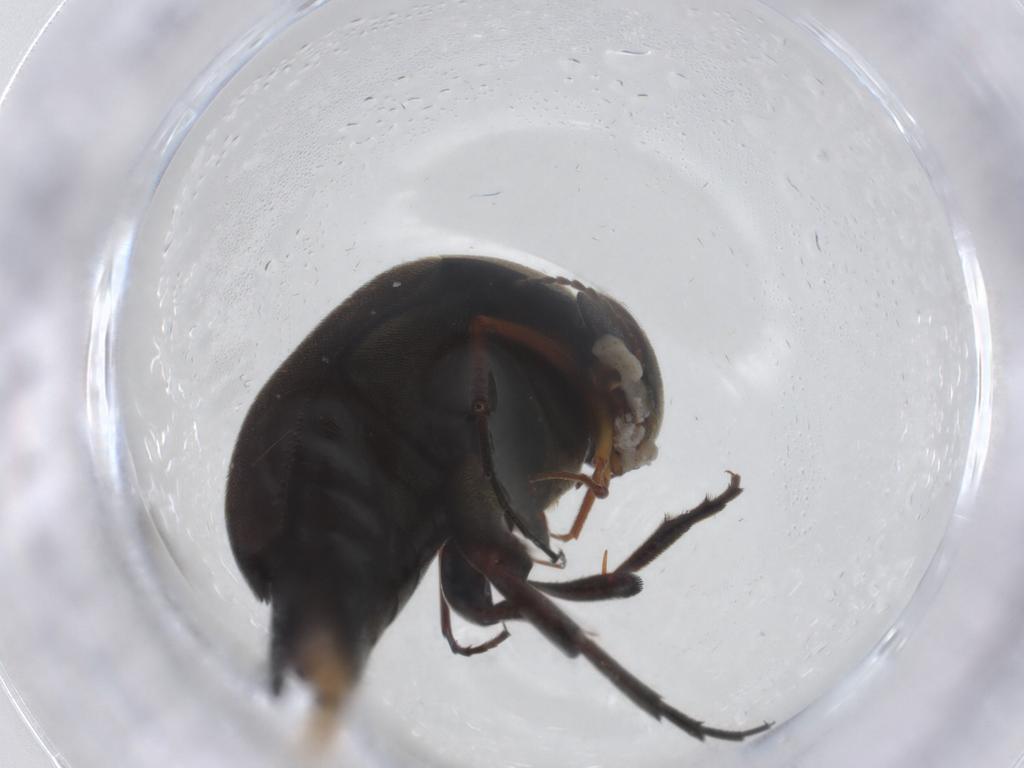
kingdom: Animalia
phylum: Arthropoda
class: Insecta
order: Coleoptera
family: Mordellidae
